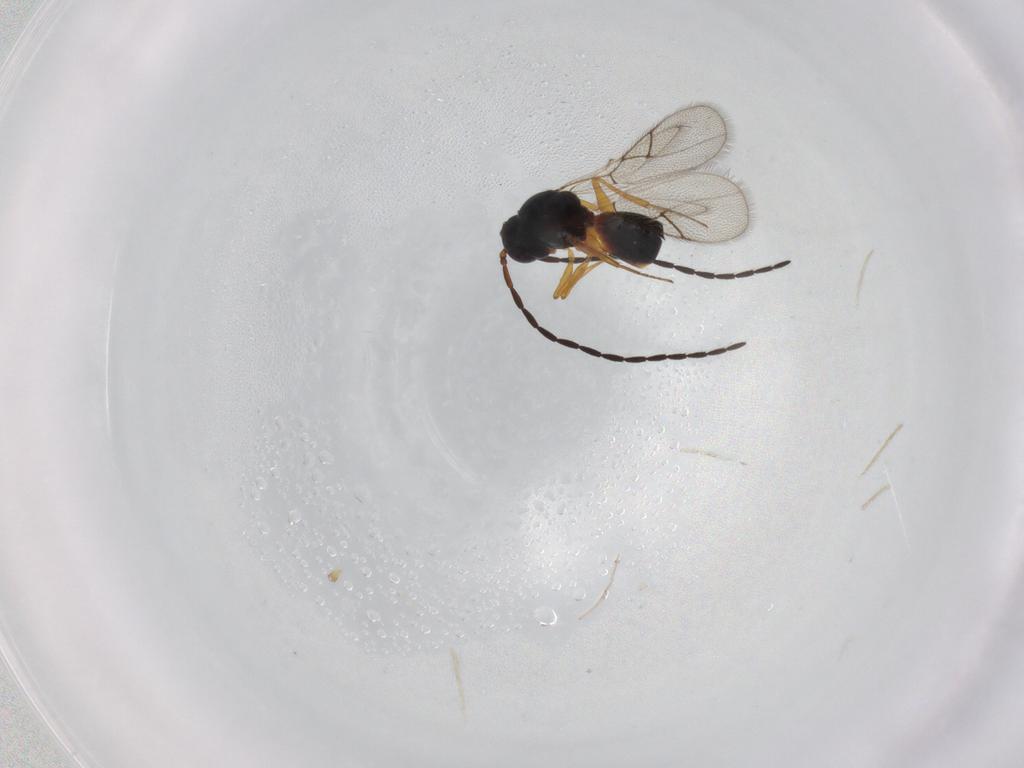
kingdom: Animalia
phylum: Arthropoda
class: Insecta
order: Hymenoptera
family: Figitidae
